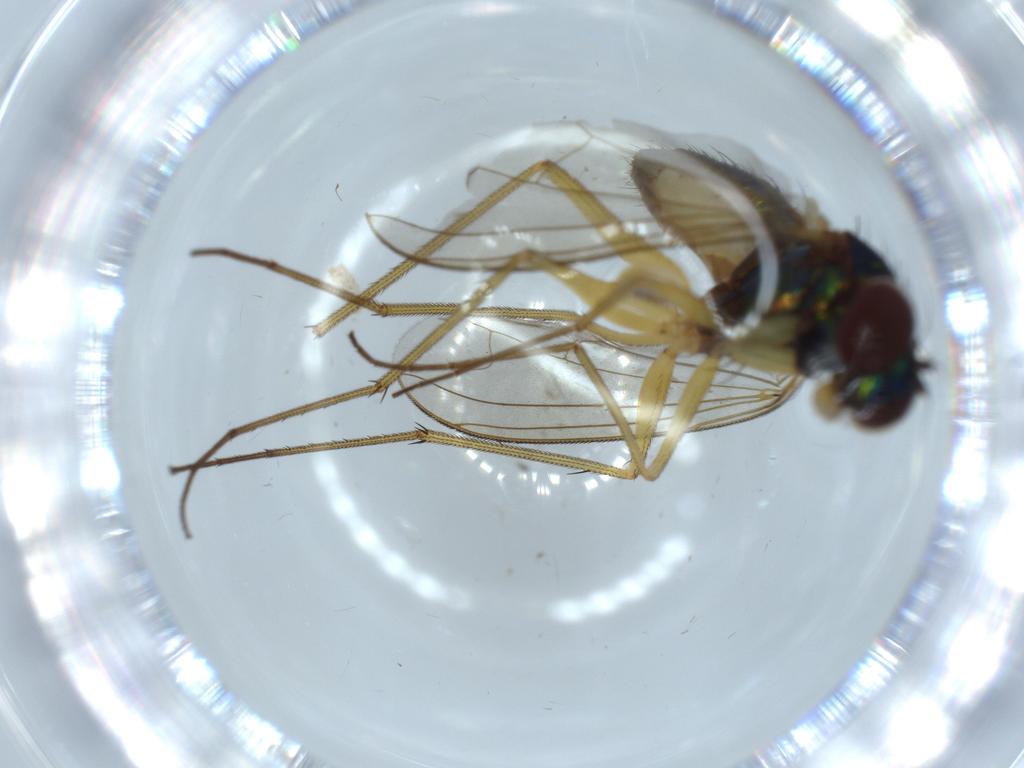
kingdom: Animalia
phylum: Arthropoda
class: Insecta
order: Diptera
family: Dolichopodidae
